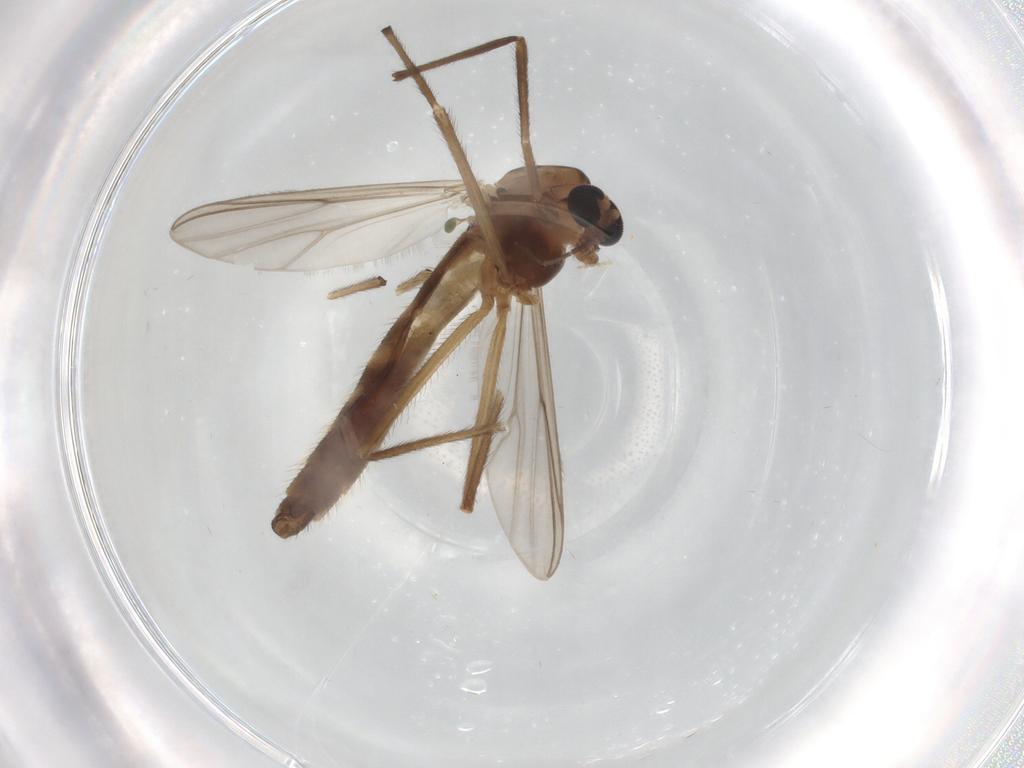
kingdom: Animalia
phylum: Arthropoda
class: Insecta
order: Diptera
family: Chironomidae
